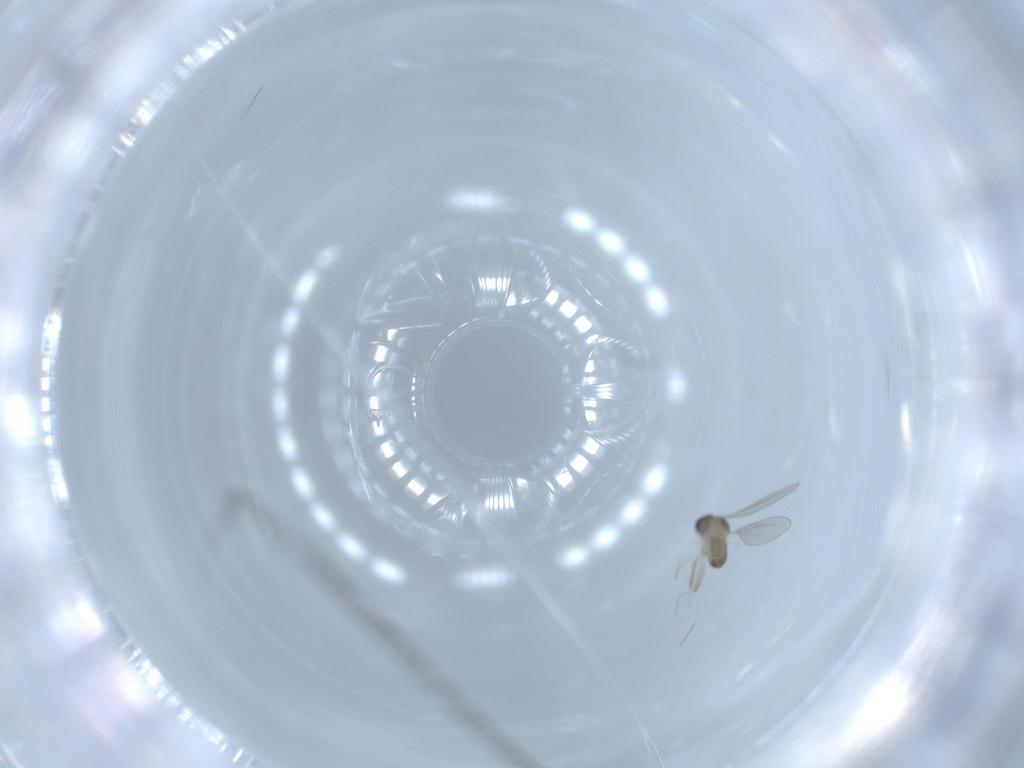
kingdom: Animalia
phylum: Arthropoda
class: Insecta
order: Diptera
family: Cecidomyiidae
